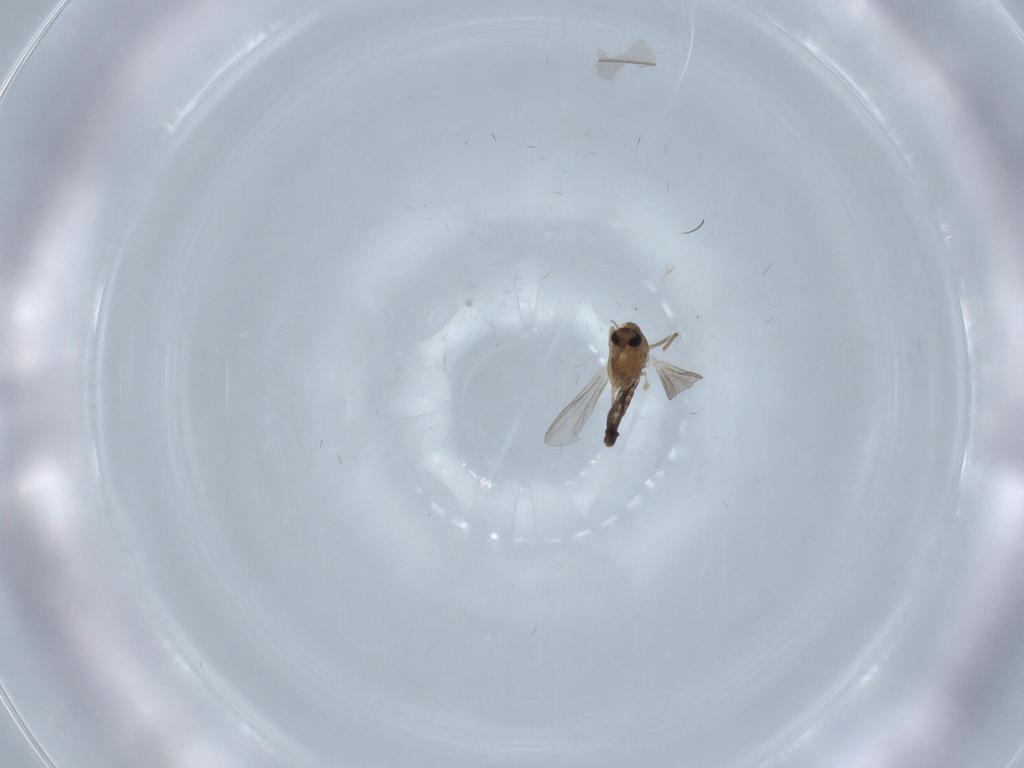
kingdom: Animalia
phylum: Arthropoda
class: Insecta
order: Diptera
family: Chironomidae
